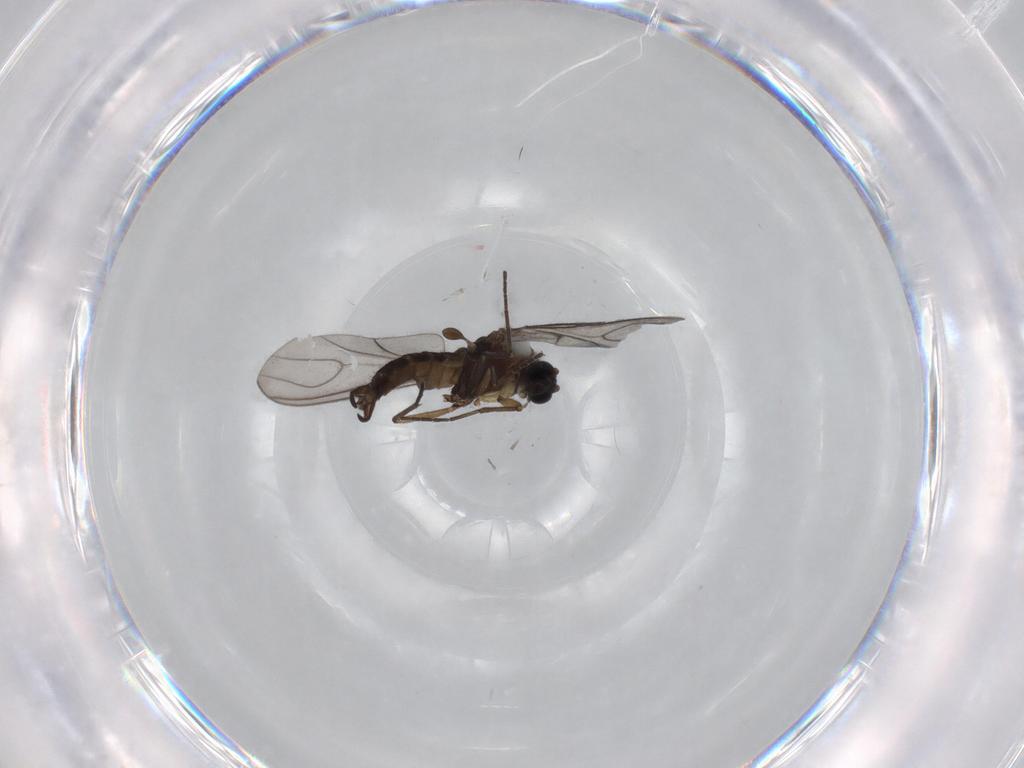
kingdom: Animalia
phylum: Arthropoda
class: Insecta
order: Diptera
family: Sciaridae
